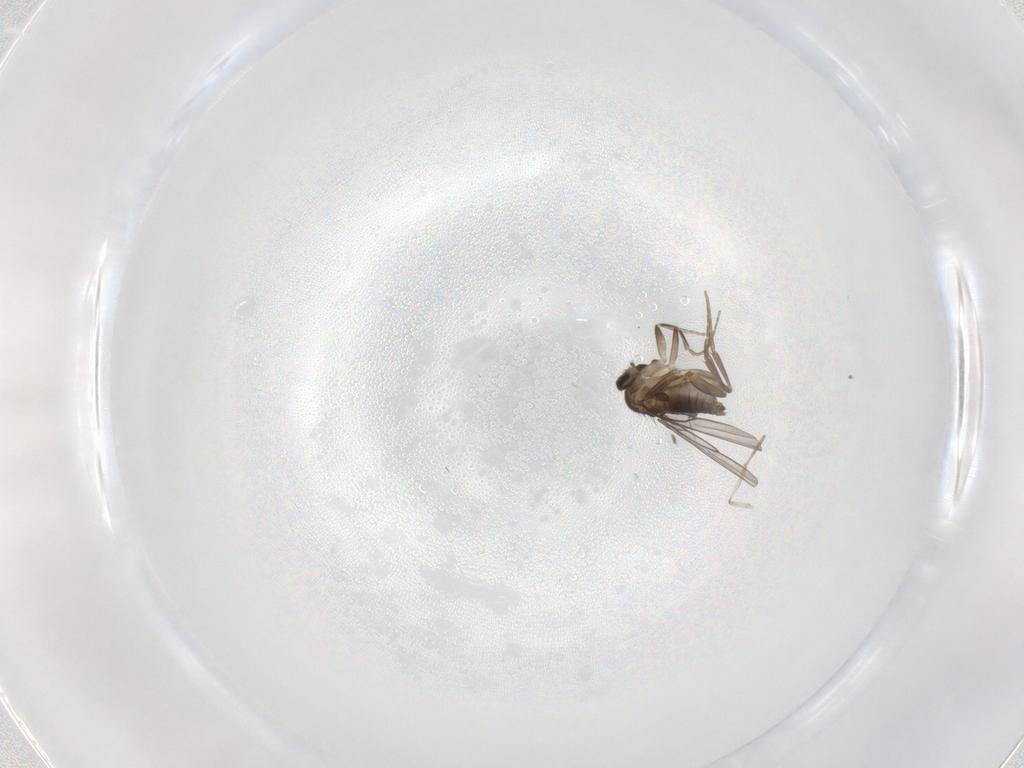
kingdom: Animalia
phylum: Arthropoda
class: Insecta
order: Diptera
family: Psychodidae
